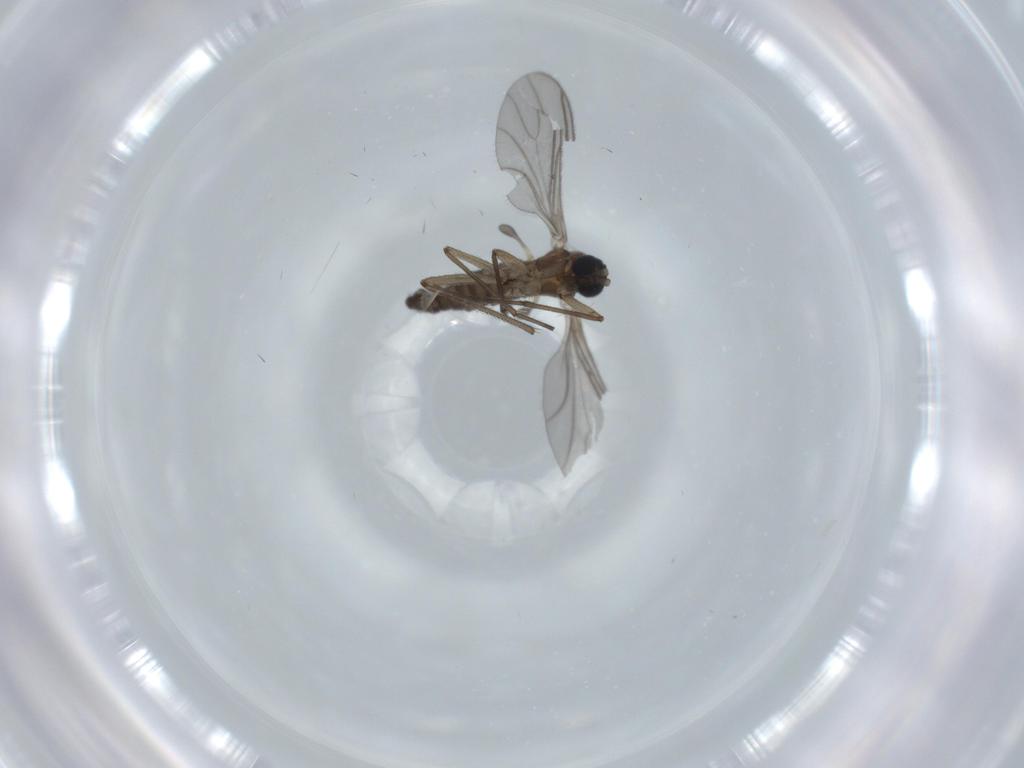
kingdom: Animalia
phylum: Arthropoda
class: Insecta
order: Diptera
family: Sciaridae
